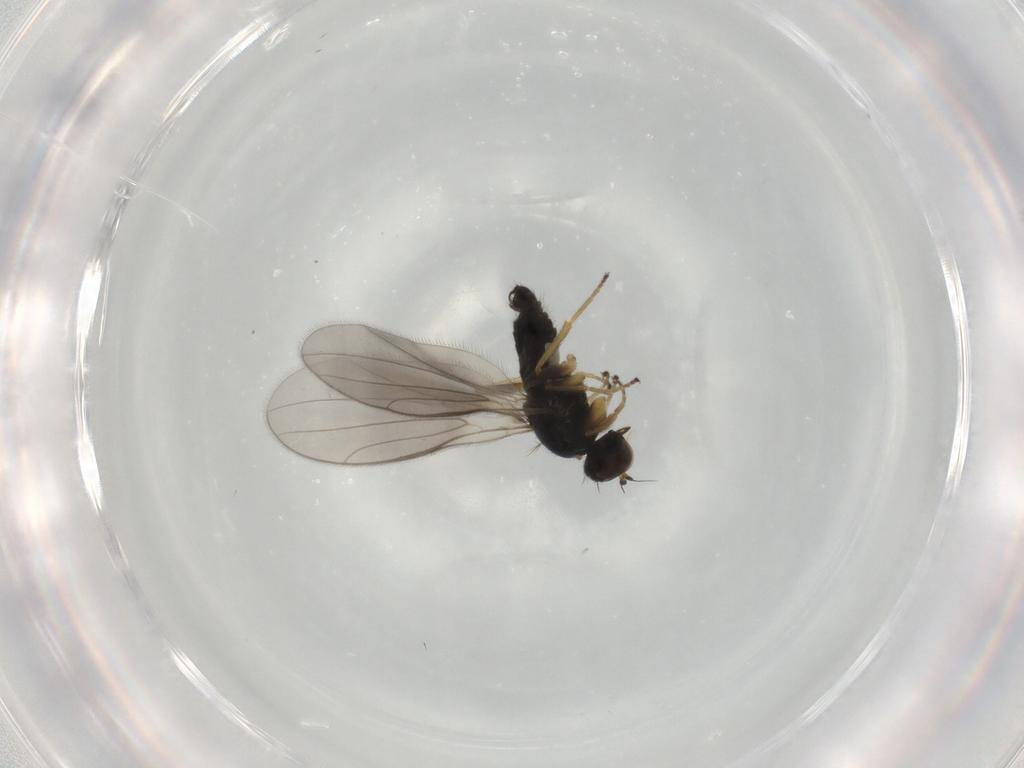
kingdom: Animalia
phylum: Arthropoda
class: Insecta
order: Diptera
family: Hybotidae
